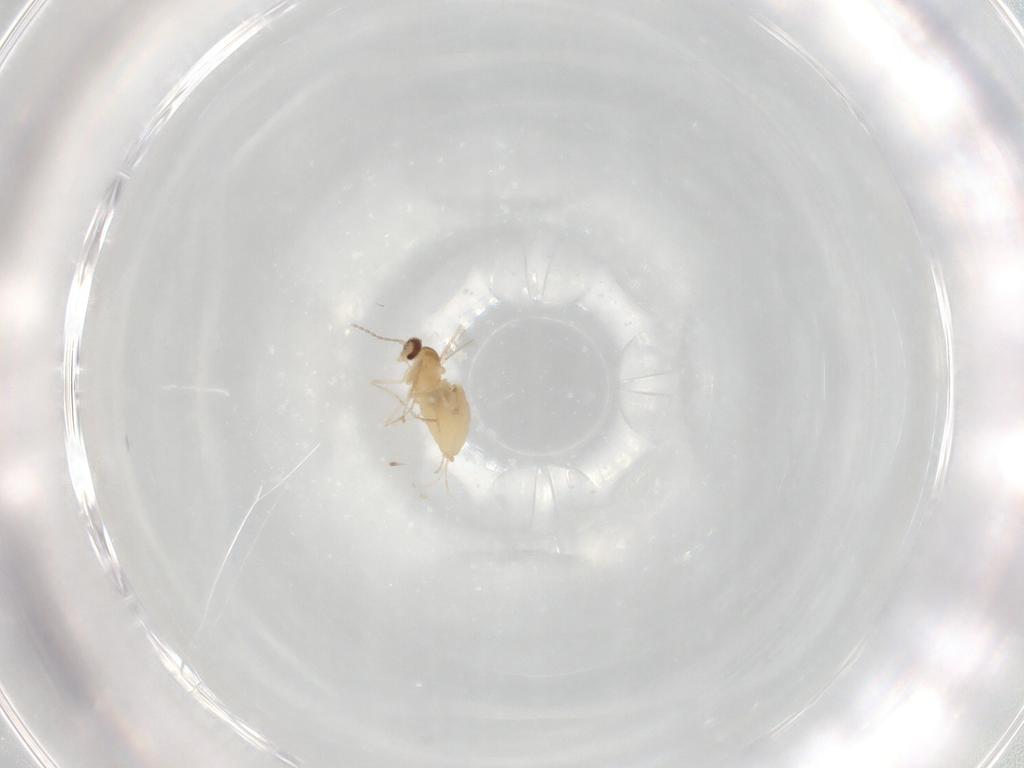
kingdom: Animalia
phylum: Arthropoda
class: Insecta
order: Diptera
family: Cecidomyiidae
